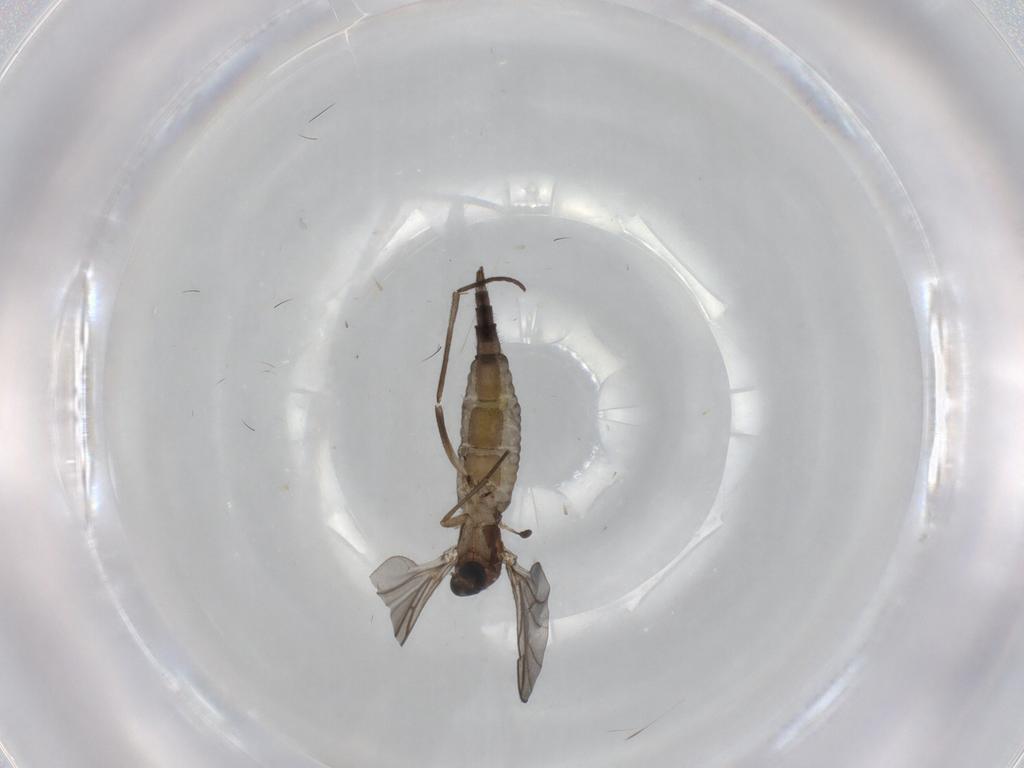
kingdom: Animalia
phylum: Arthropoda
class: Insecta
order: Diptera
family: Sciaridae
